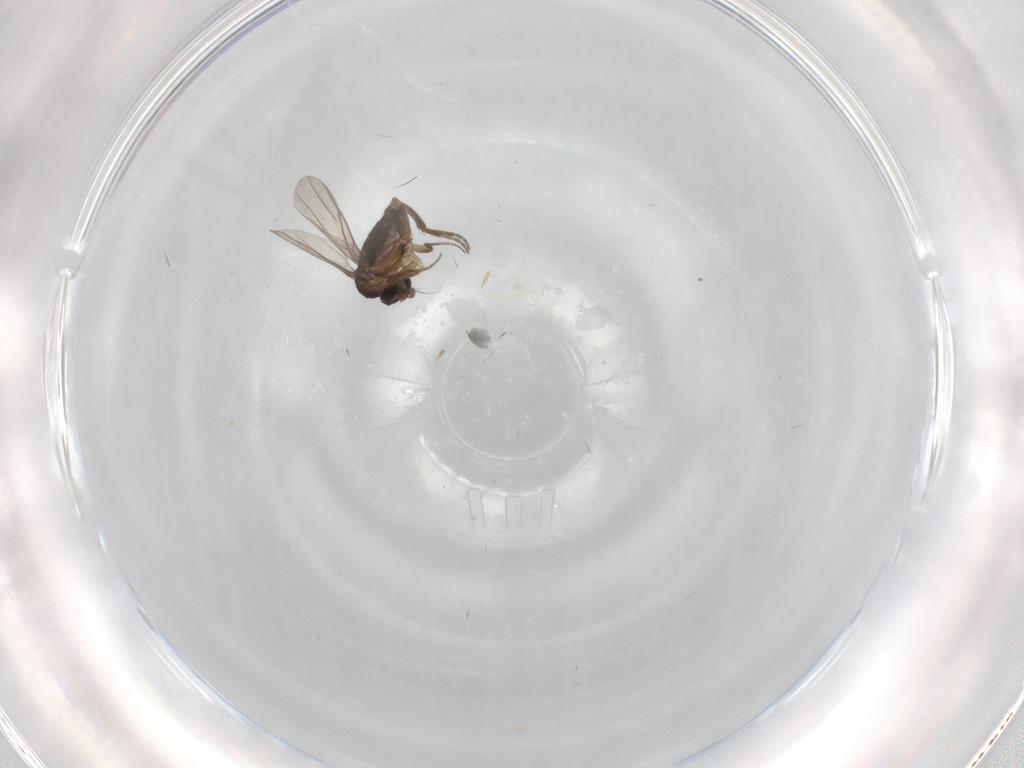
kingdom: Animalia
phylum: Arthropoda
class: Insecta
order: Diptera
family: Chironomidae
